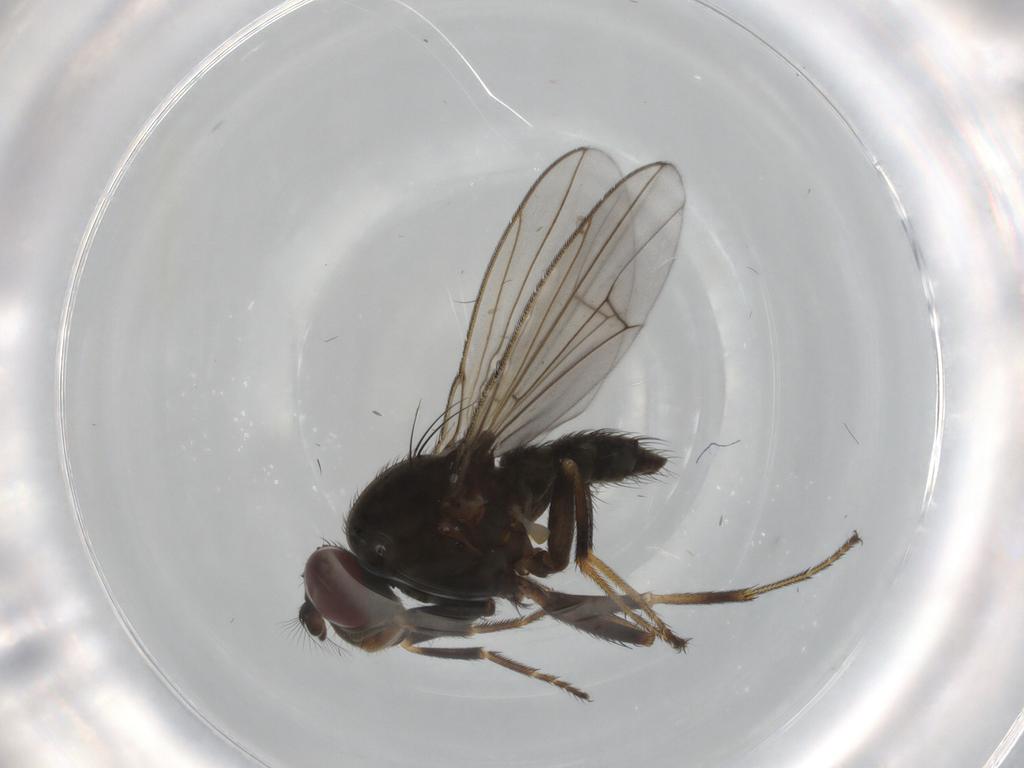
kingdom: Animalia
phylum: Arthropoda
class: Insecta
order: Diptera
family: Ephydridae
